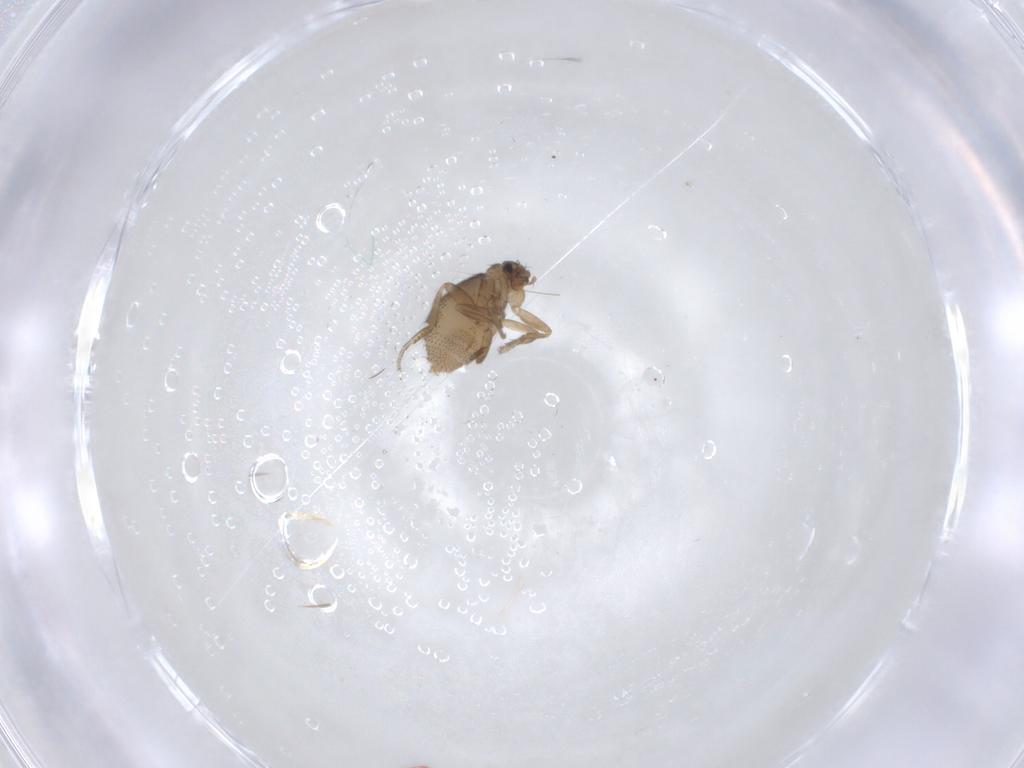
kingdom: Animalia
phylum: Arthropoda
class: Insecta
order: Diptera
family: Phoridae
